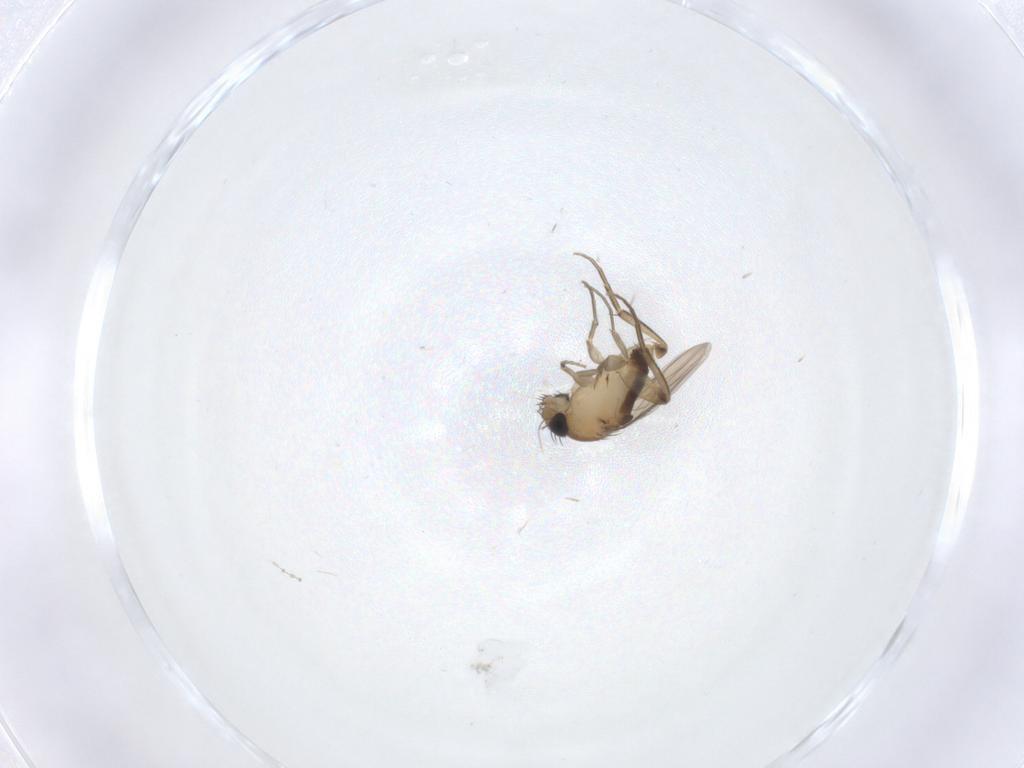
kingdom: Animalia
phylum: Arthropoda
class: Insecta
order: Diptera
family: Phoridae
